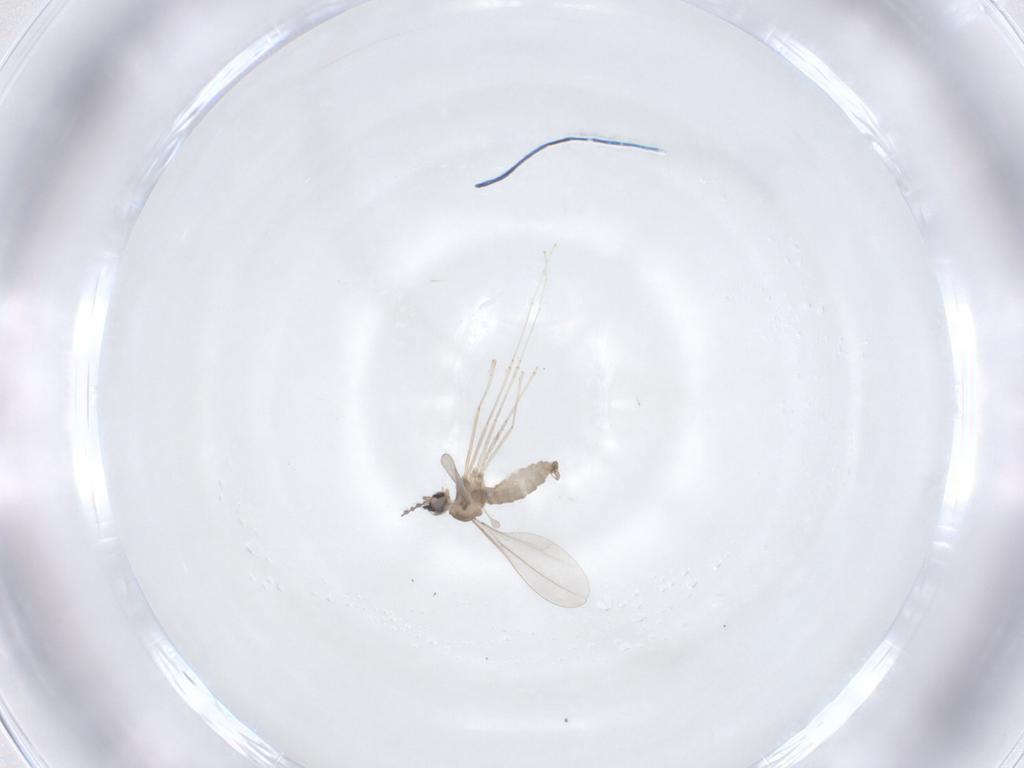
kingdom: Animalia
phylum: Arthropoda
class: Insecta
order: Diptera
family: Cecidomyiidae
